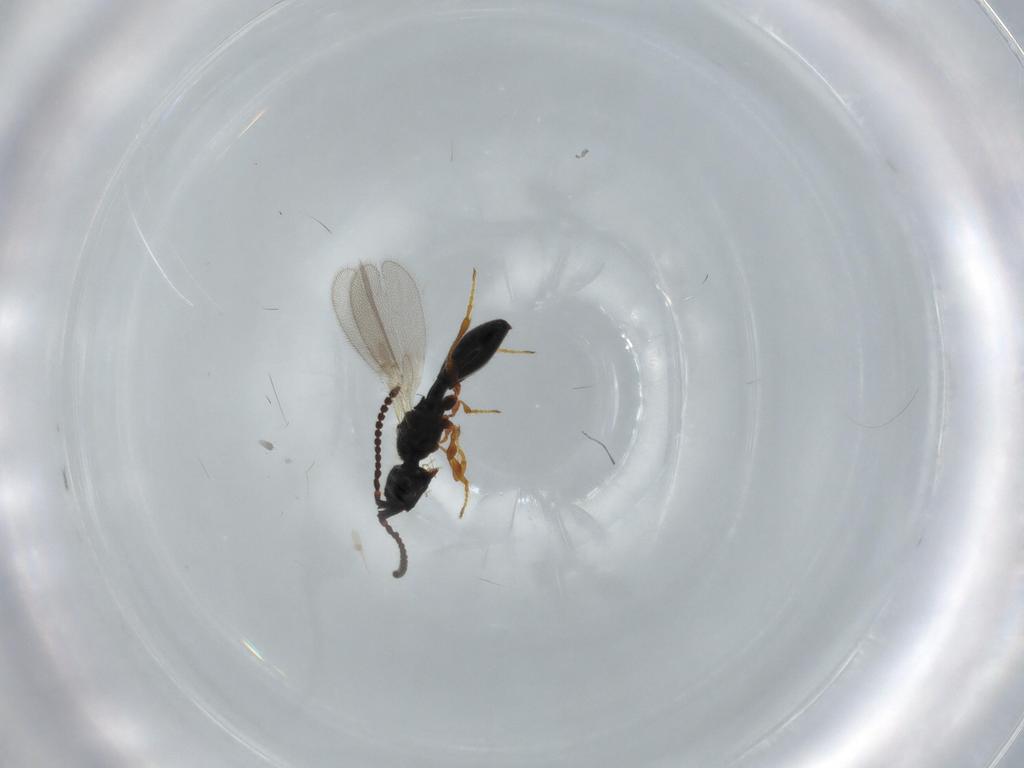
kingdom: Animalia
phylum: Arthropoda
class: Insecta
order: Hymenoptera
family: Diapriidae
